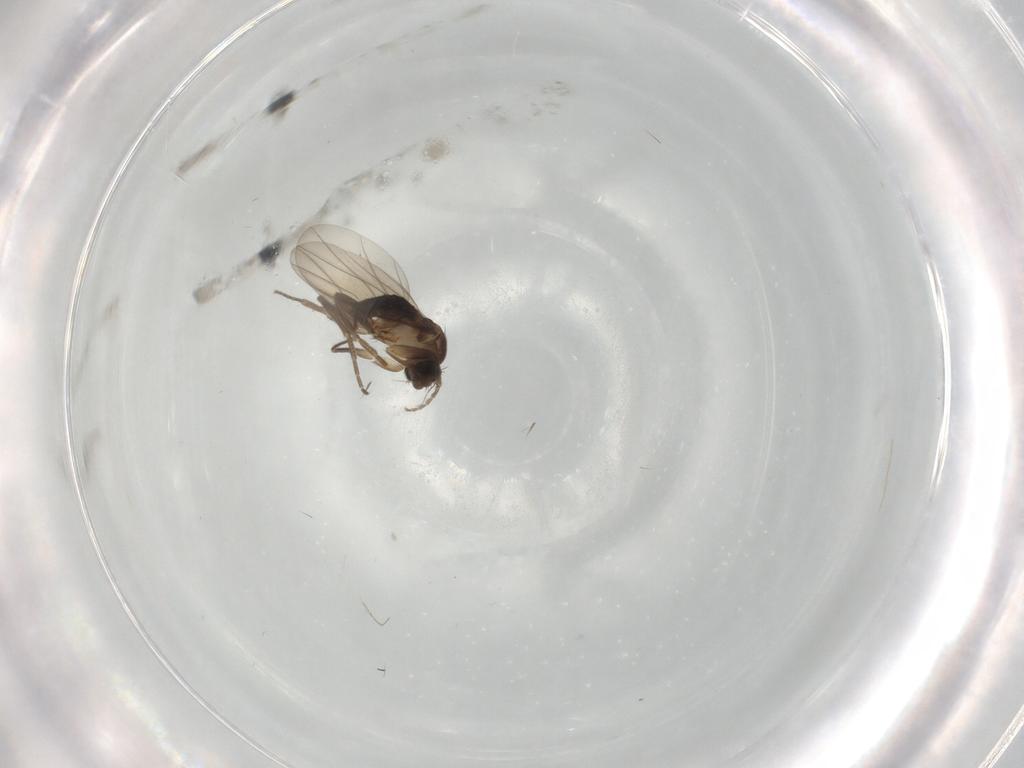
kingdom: Animalia
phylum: Arthropoda
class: Insecta
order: Diptera
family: Phoridae
